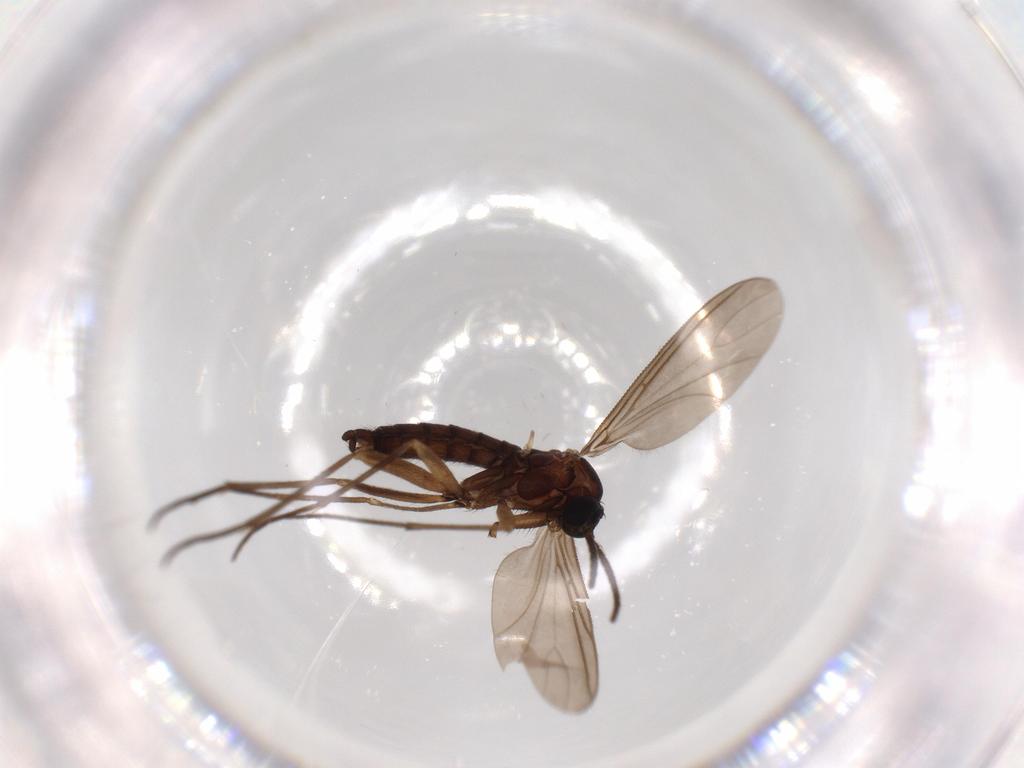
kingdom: Animalia
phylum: Arthropoda
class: Insecta
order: Diptera
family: Sciaridae
